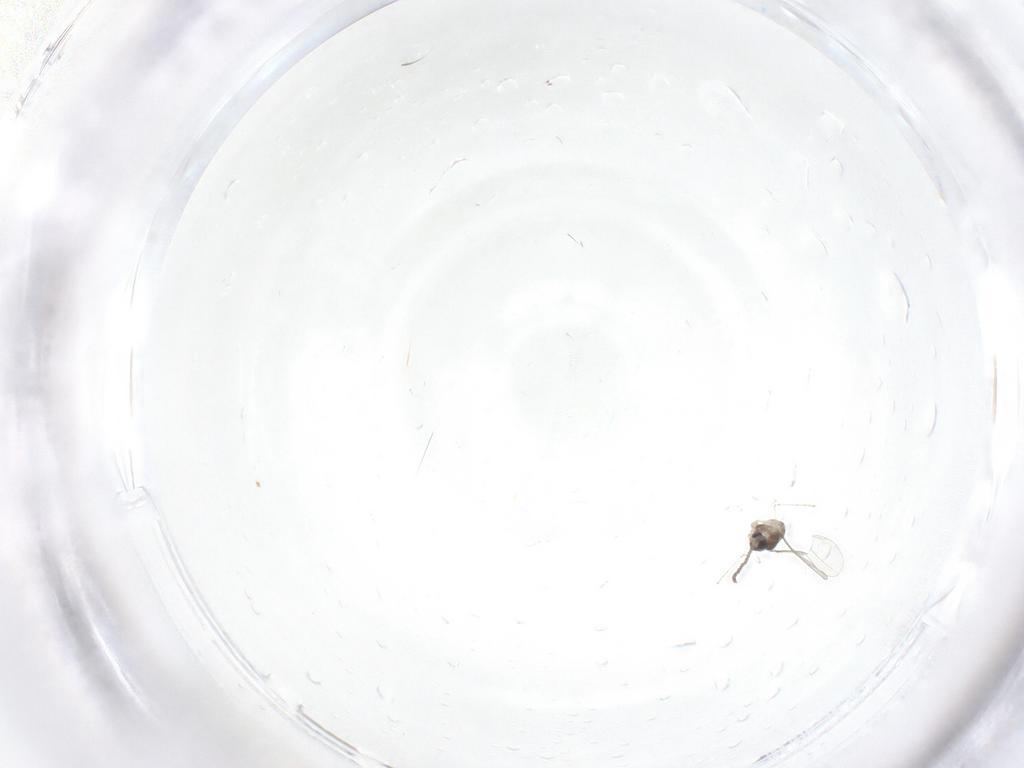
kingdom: Animalia
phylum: Arthropoda
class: Insecta
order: Diptera
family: Cecidomyiidae
